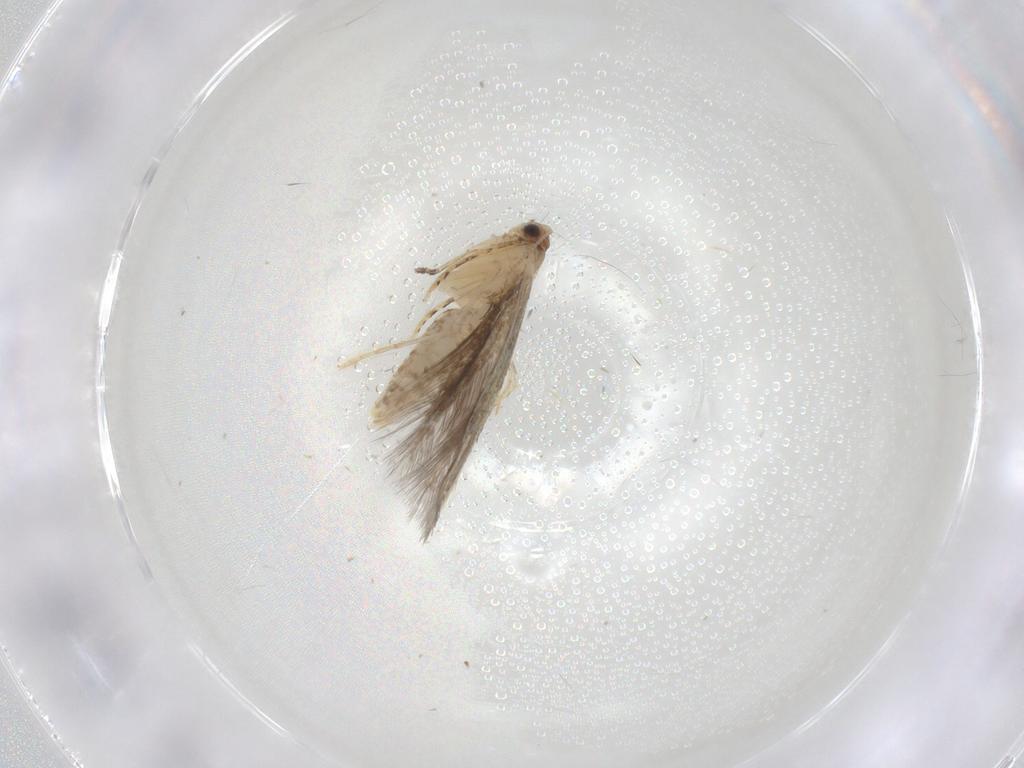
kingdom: Animalia
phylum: Arthropoda
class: Insecta
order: Lepidoptera
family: Tineidae
